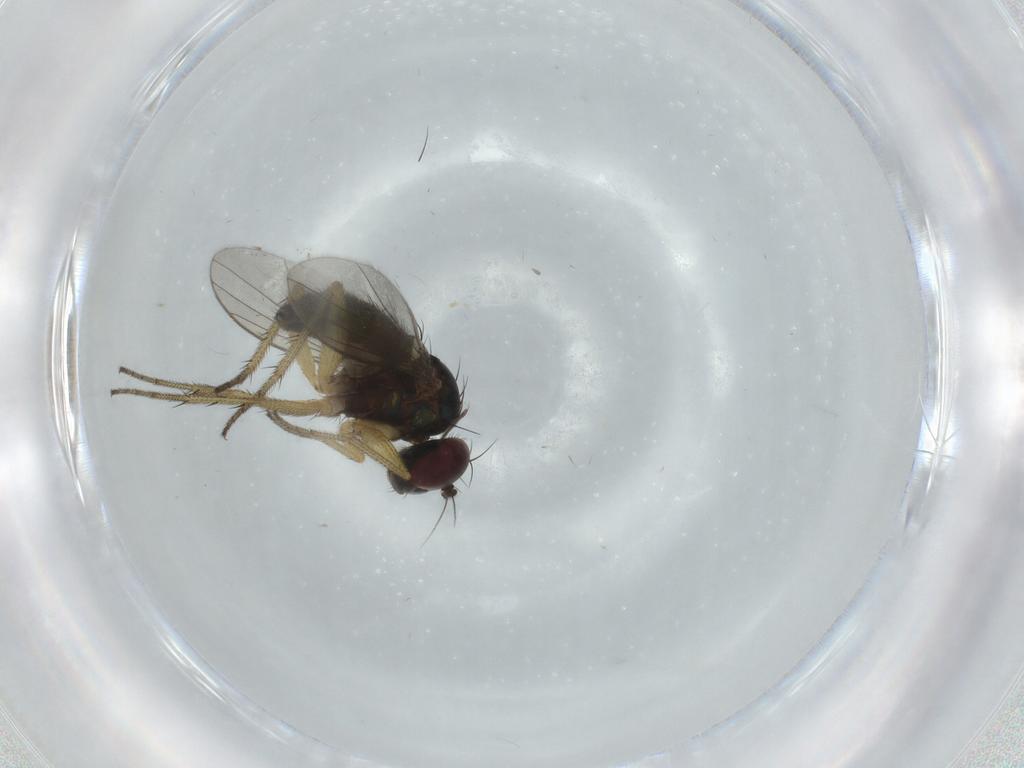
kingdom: Animalia
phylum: Arthropoda
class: Insecta
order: Diptera
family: Dolichopodidae
